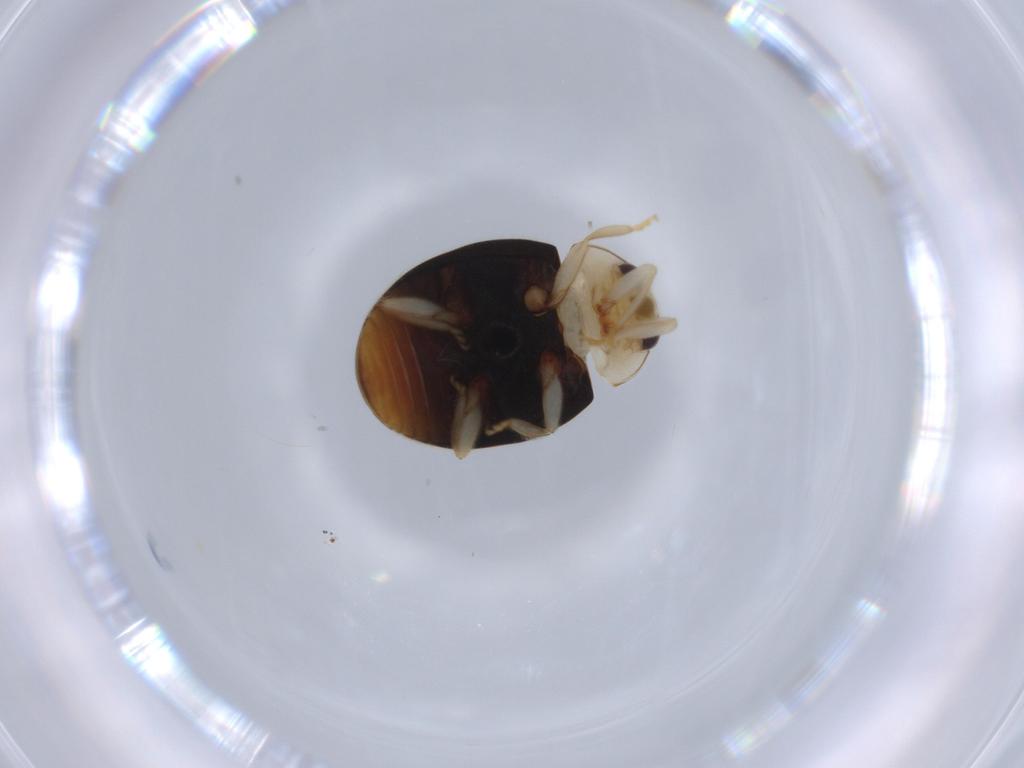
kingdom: Animalia
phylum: Arthropoda
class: Insecta
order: Coleoptera
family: Coccinellidae
